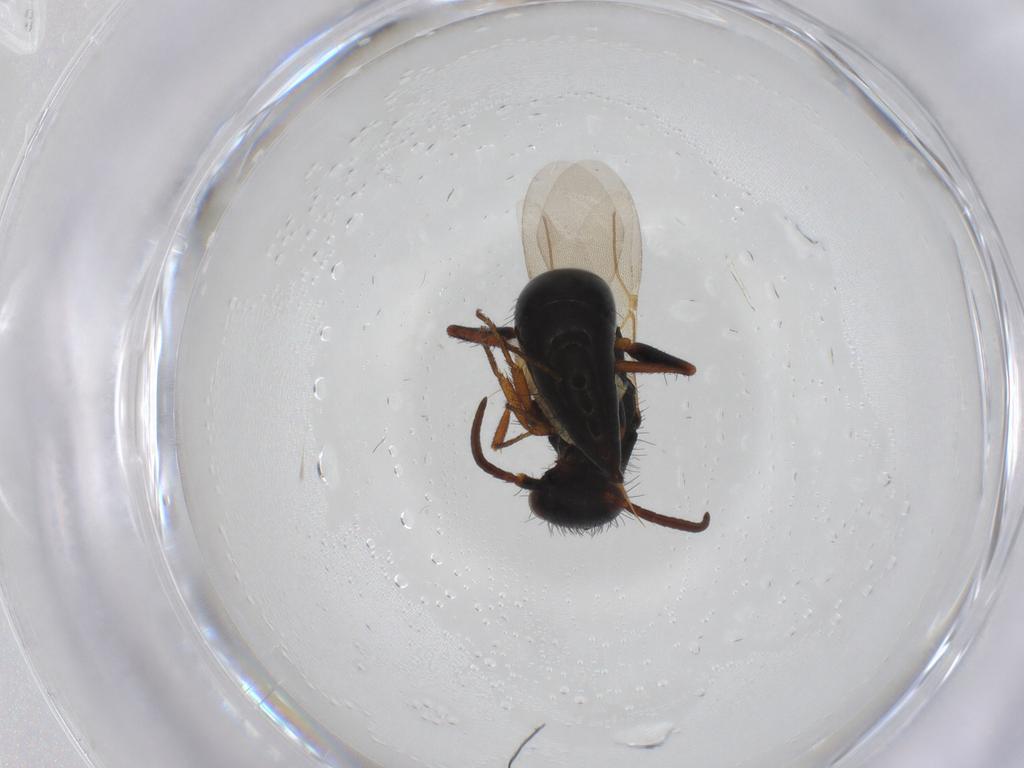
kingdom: Animalia
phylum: Arthropoda
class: Insecta
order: Hymenoptera
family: Bethylidae
